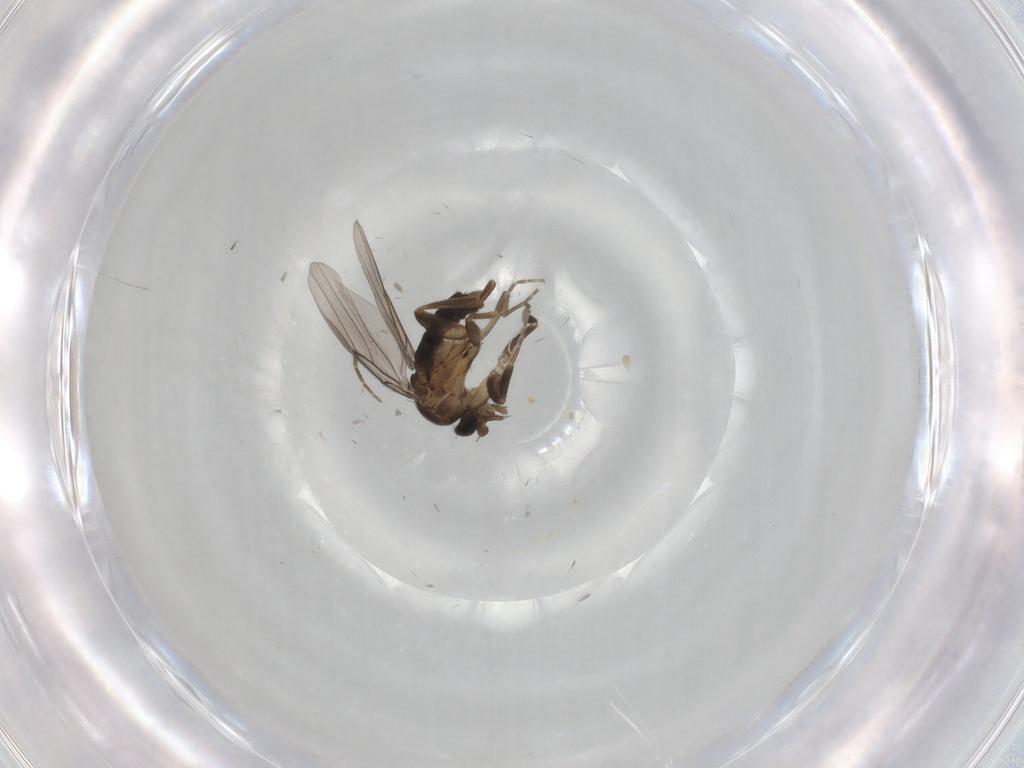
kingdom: Animalia
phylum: Arthropoda
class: Insecta
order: Diptera
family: Cecidomyiidae
